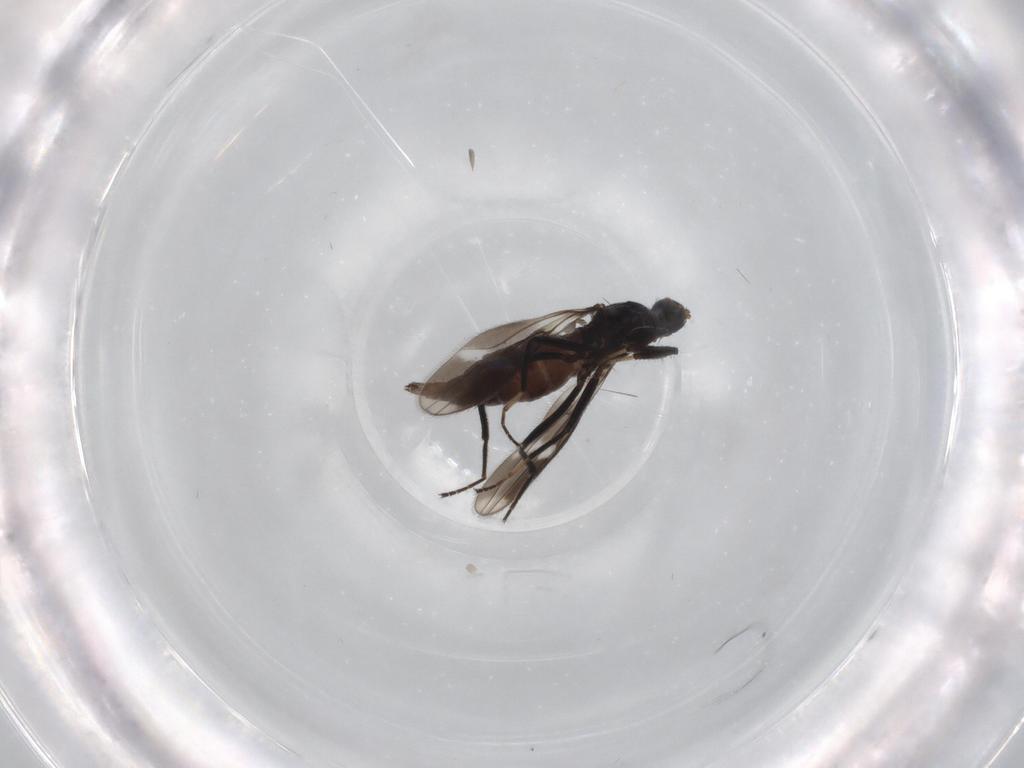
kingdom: Animalia
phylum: Arthropoda
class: Insecta
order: Diptera
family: Hybotidae
